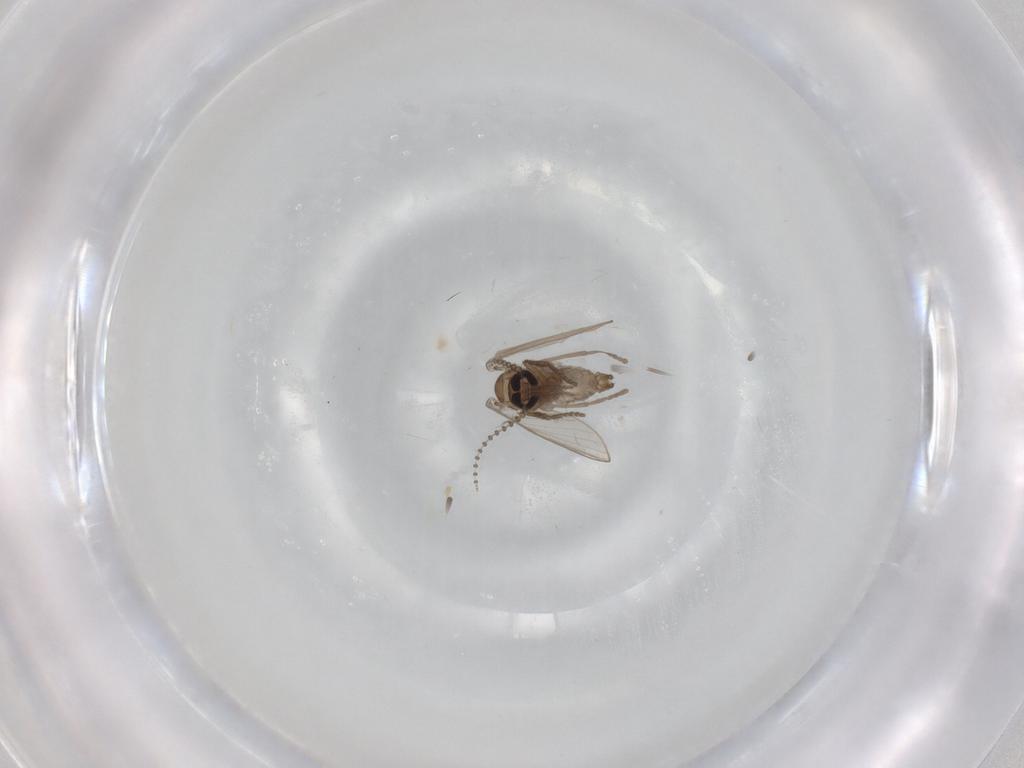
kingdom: Animalia
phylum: Arthropoda
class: Insecta
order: Diptera
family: Psychodidae
